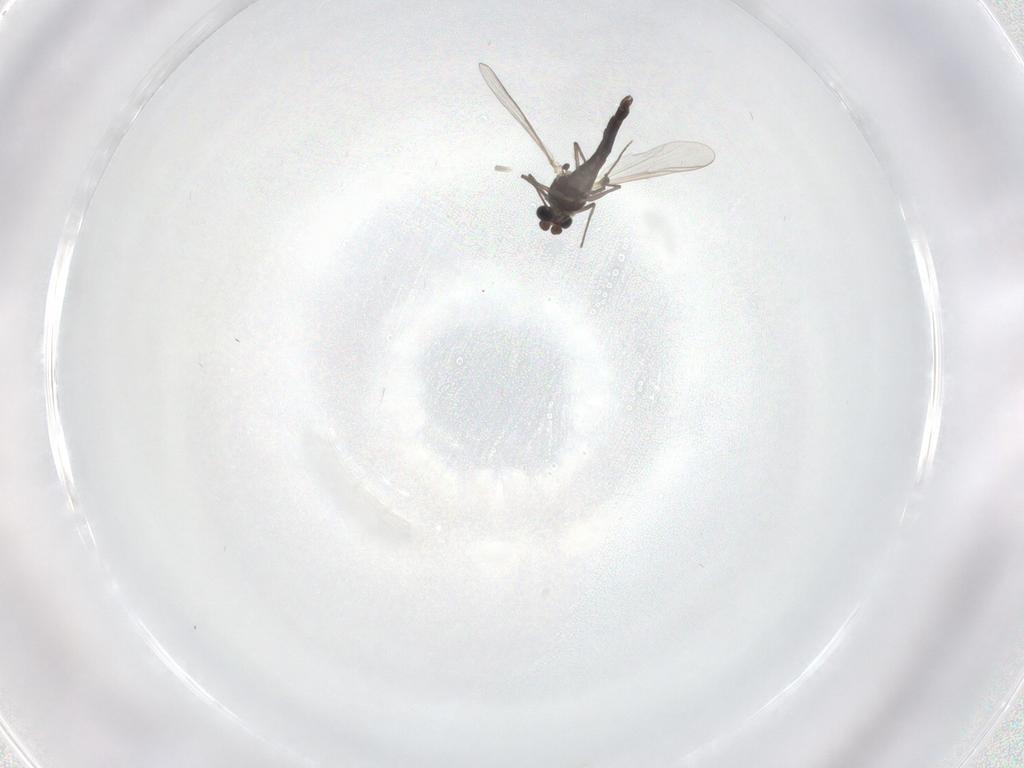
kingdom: Animalia
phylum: Arthropoda
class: Insecta
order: Diptera
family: Chironomidae
